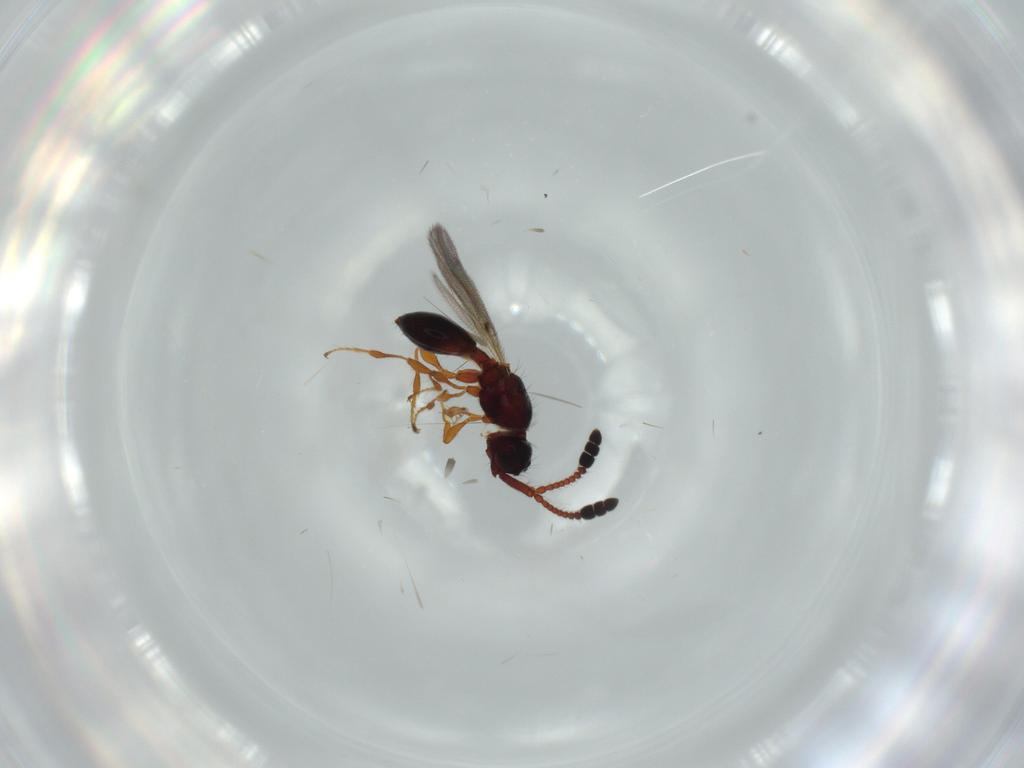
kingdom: Animalia
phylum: Arthropoda
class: Insecta
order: Hymenoptera
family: Diapriidae
